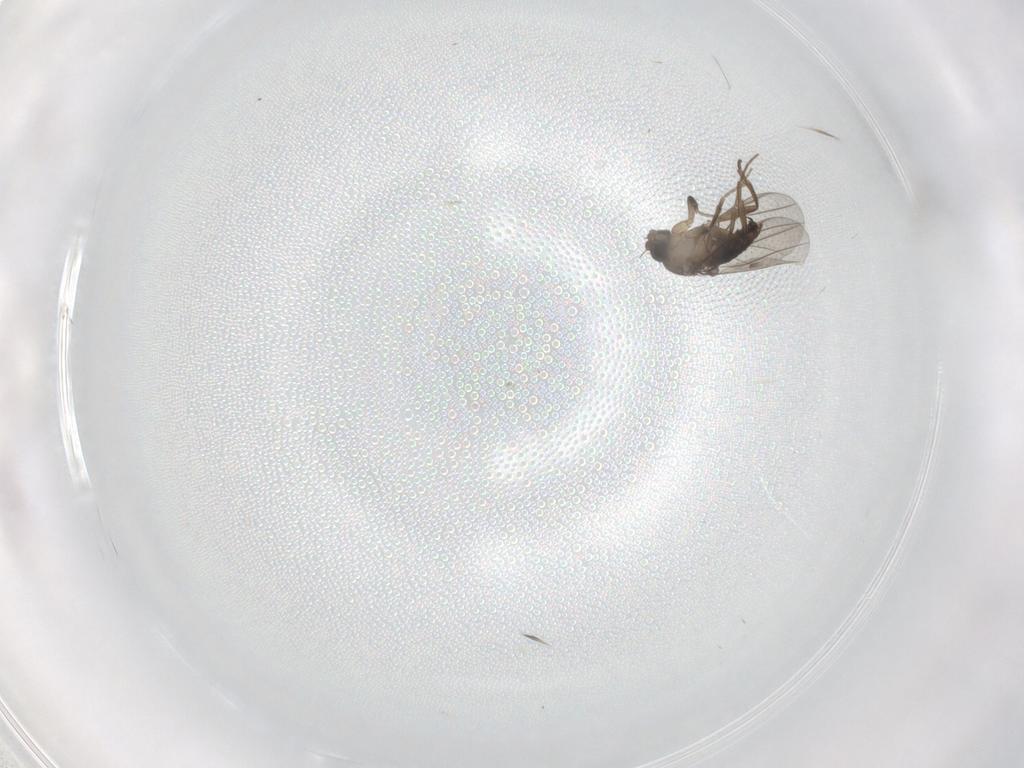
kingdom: Animalia
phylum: Arthropoda
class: Insecta
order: Diptera
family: Phoridae
